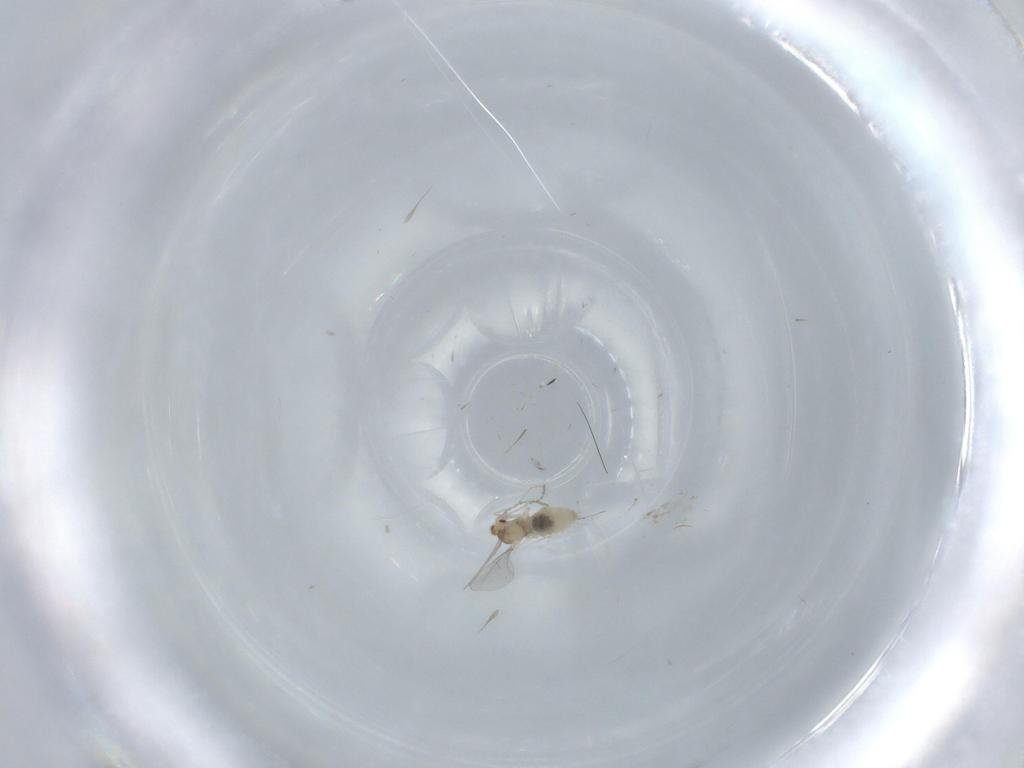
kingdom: Animalia
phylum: Arthropoda
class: Insecta
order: Diptera
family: Cecidomyiidae
